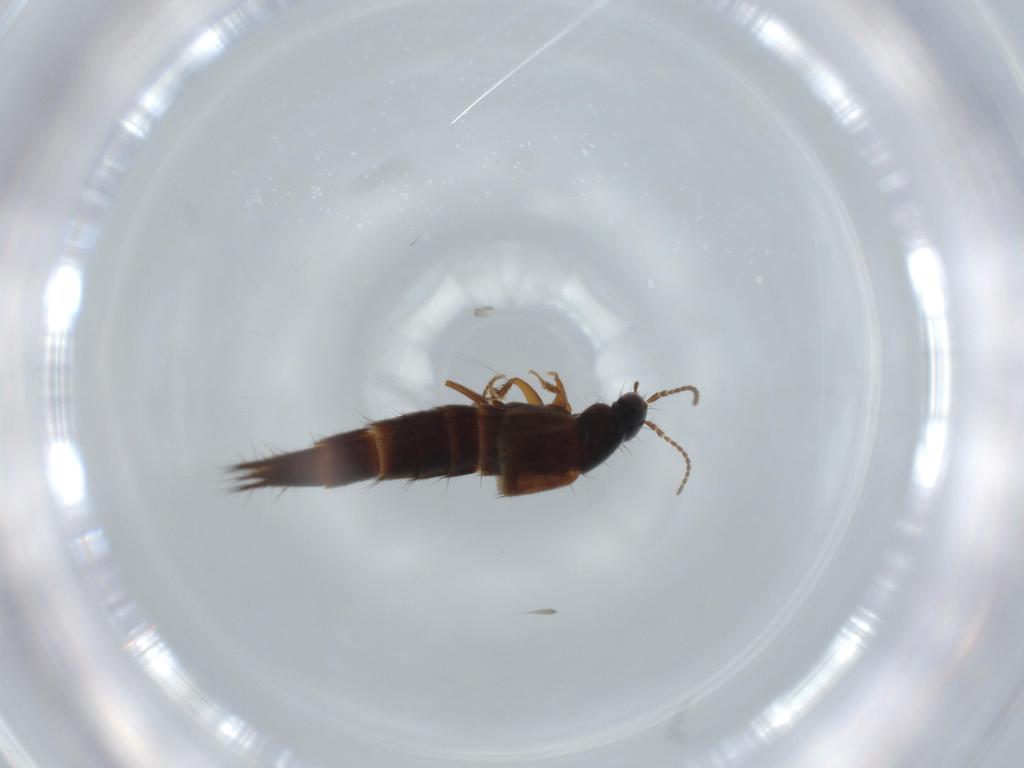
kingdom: Animalia
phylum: Arthropoda
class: Insecta
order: Coleoptera
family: Staphylinidae
